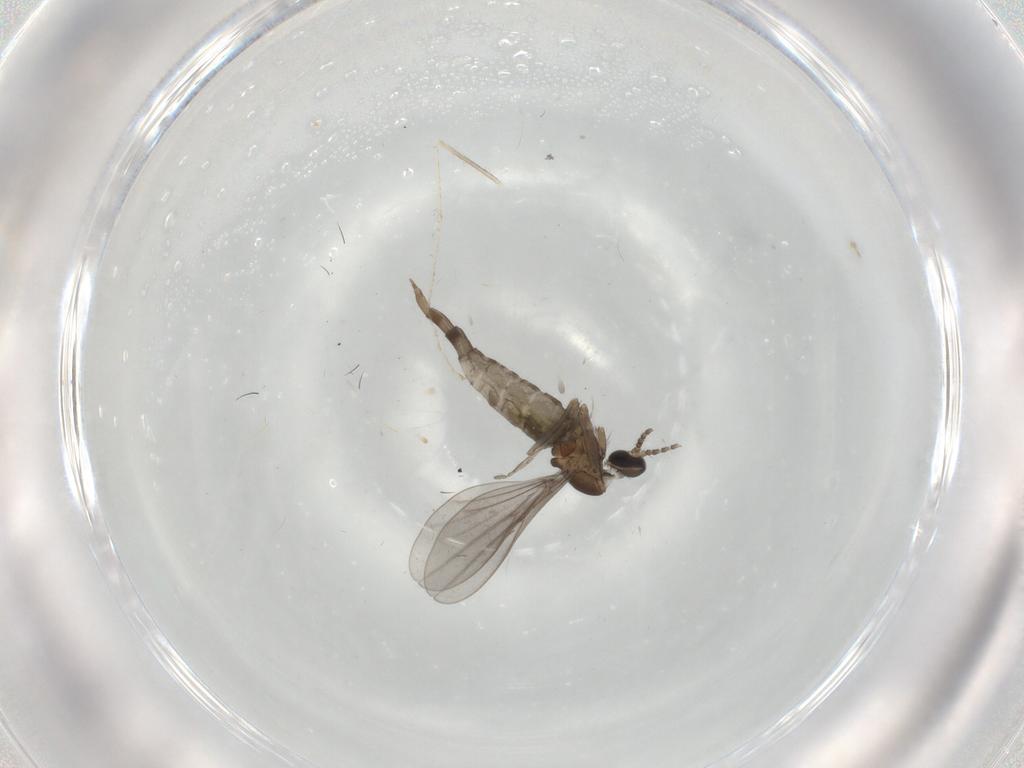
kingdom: Animalia
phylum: Arthropoda
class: Insecta
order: Diptera
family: Cecidomyiidae
